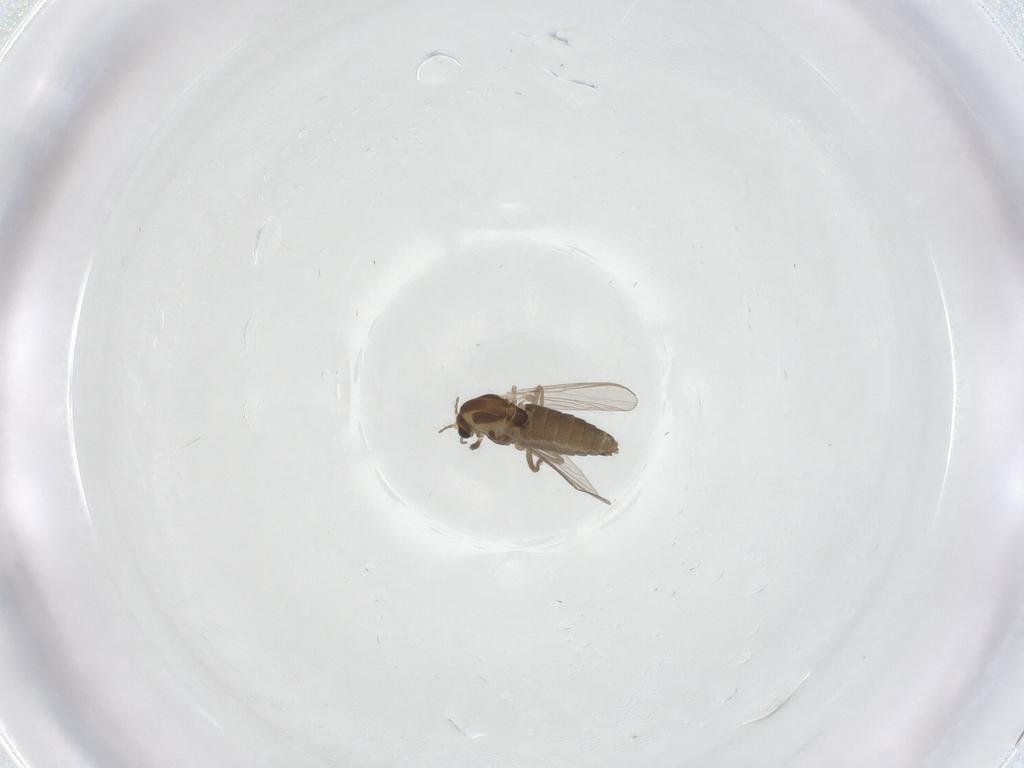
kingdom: Animalia
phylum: Arthropoda
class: Insecta
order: Diptera
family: Chironomidae
